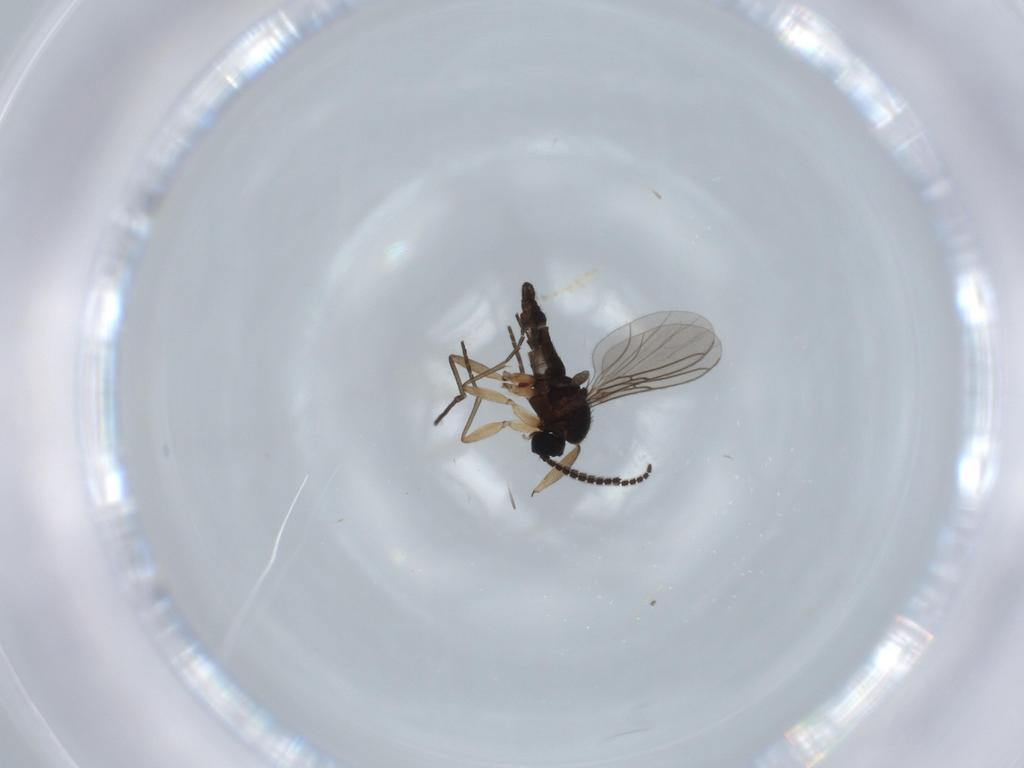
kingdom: Animalia
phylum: Arthropoda
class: Insecta
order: Diptera
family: Sciaridae
